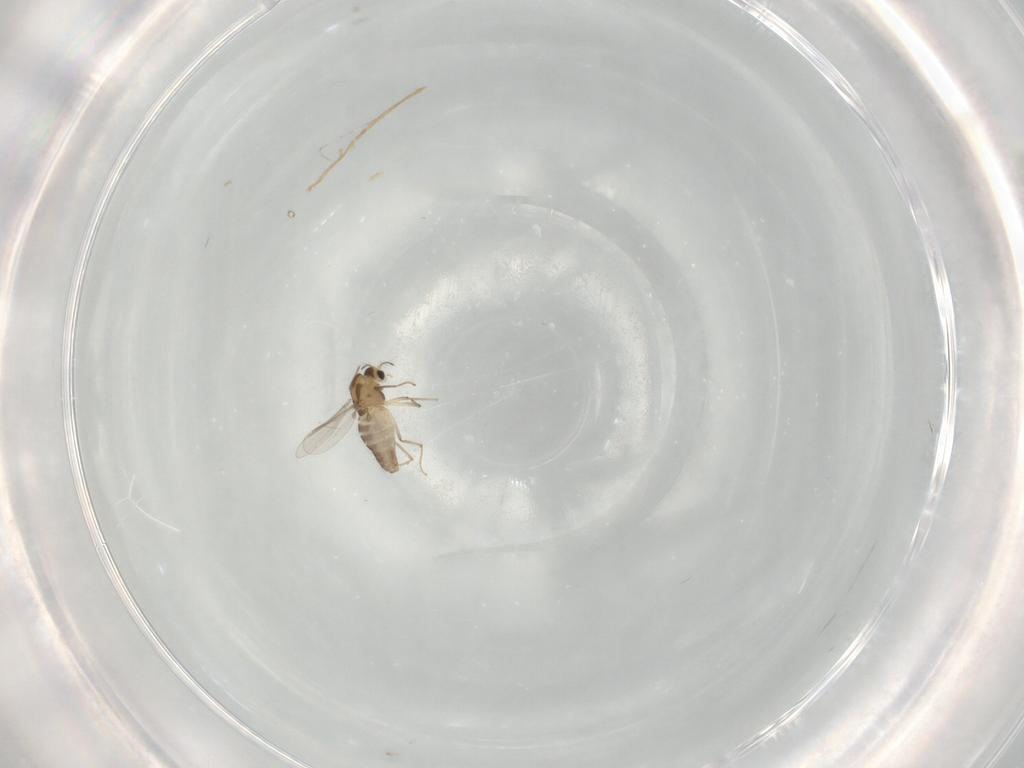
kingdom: Animalia
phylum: Arthropoda
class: Insecta
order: Diptera
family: Chironomidae
